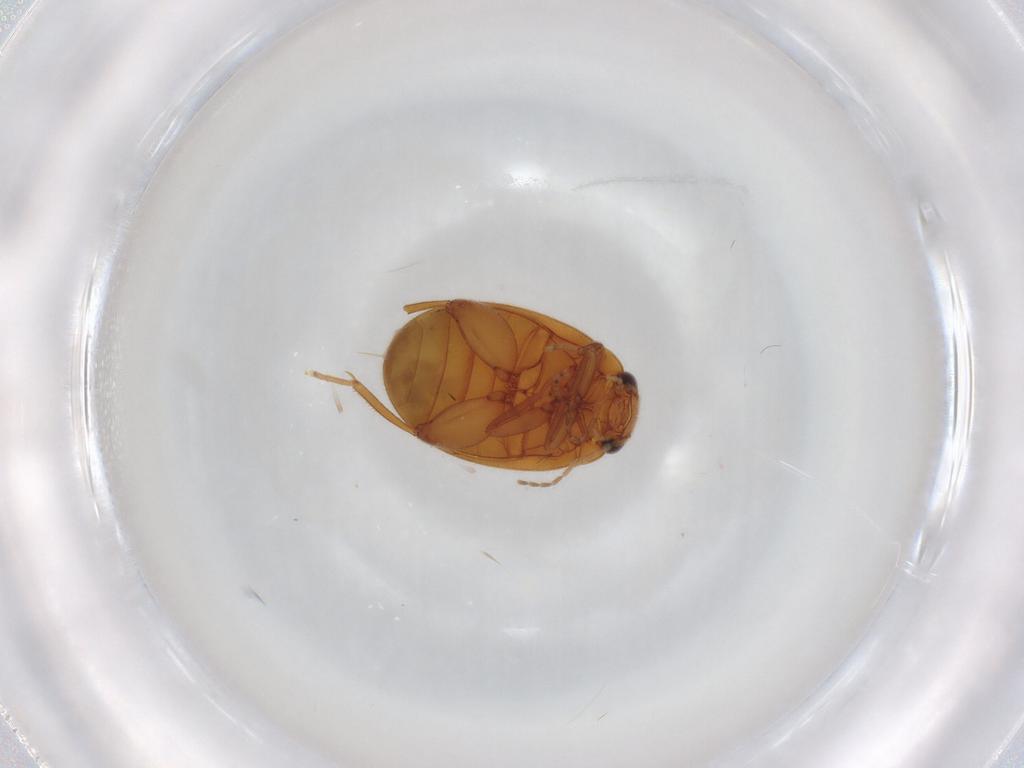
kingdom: Animalia
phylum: Arthropoda
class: Insecta
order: Coleoptera
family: Scirtidae
